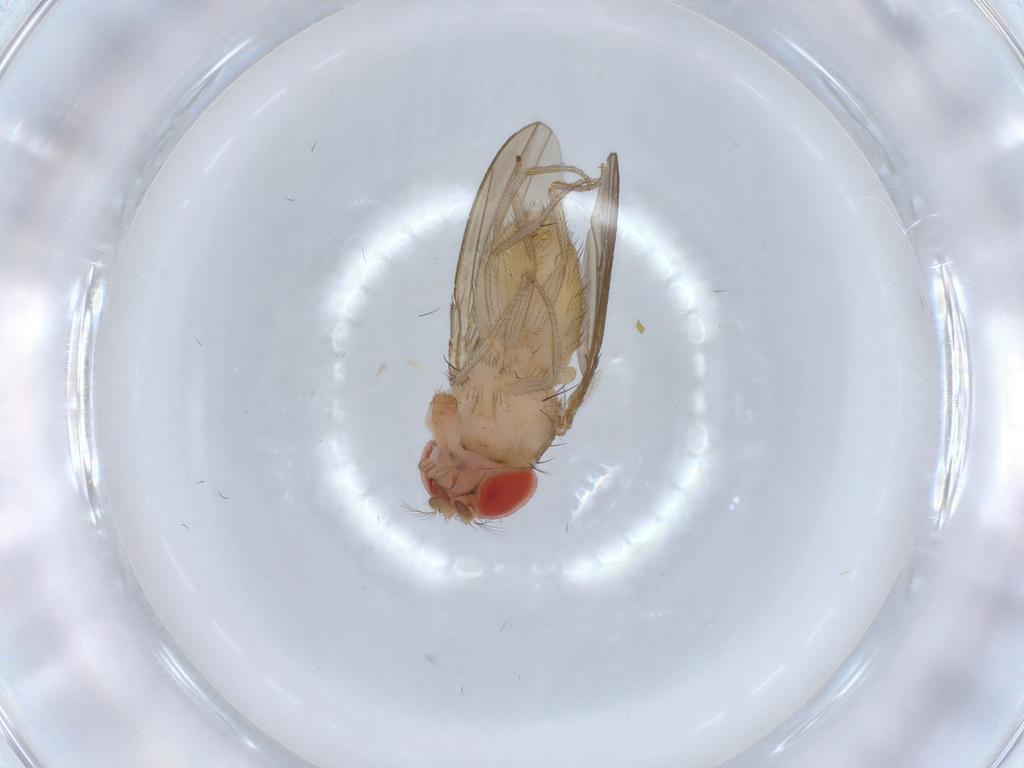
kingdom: Animalia
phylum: Arthropoda
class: Insecta
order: Diptera
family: Drosophilidae
